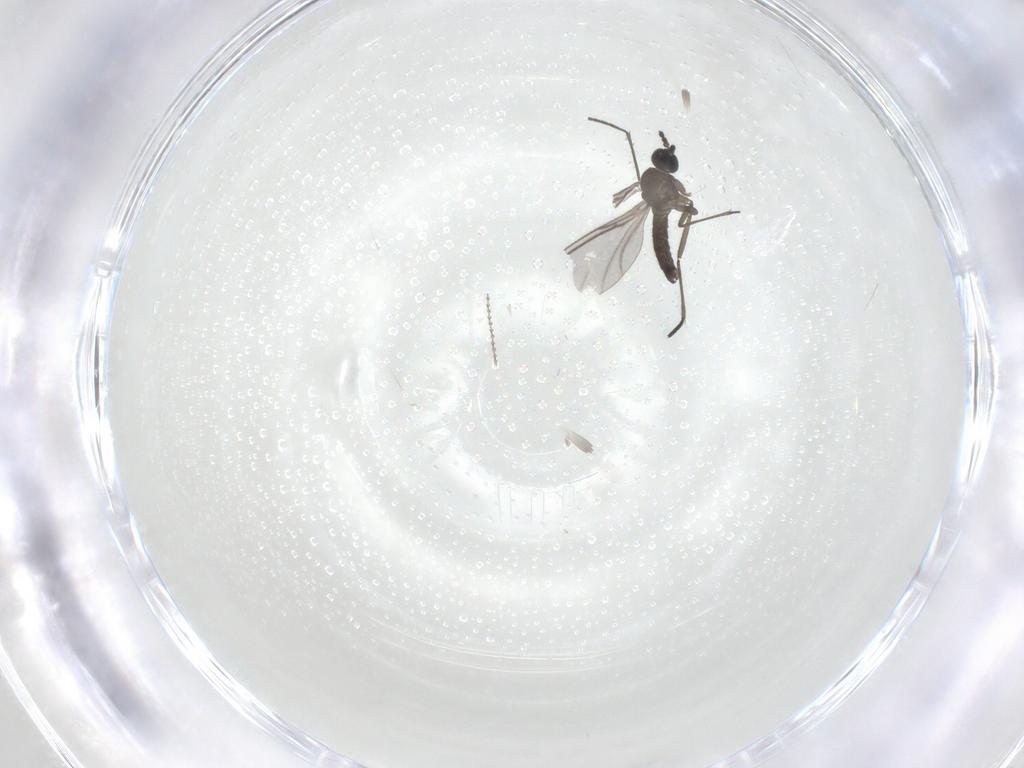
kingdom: Animalia
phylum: Arthropoda
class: Insecta
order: Diptera
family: Cecidomyiidae
